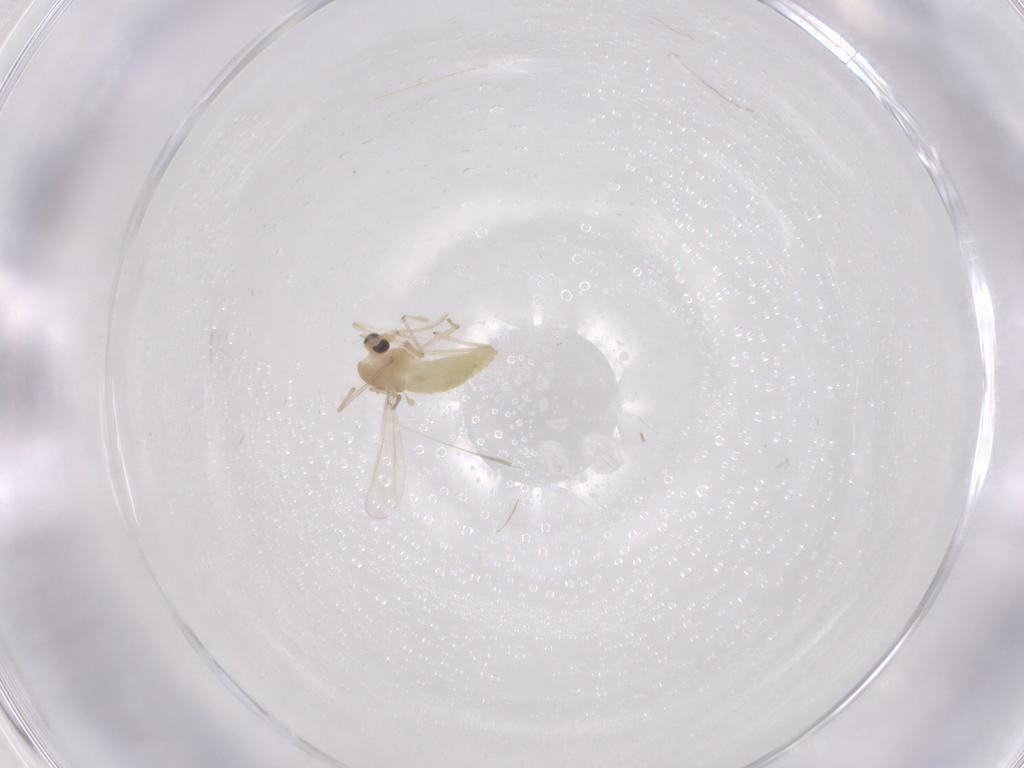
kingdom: Animalia
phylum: Arthropoda
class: Insecta
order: Diptera
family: Chironomidae
